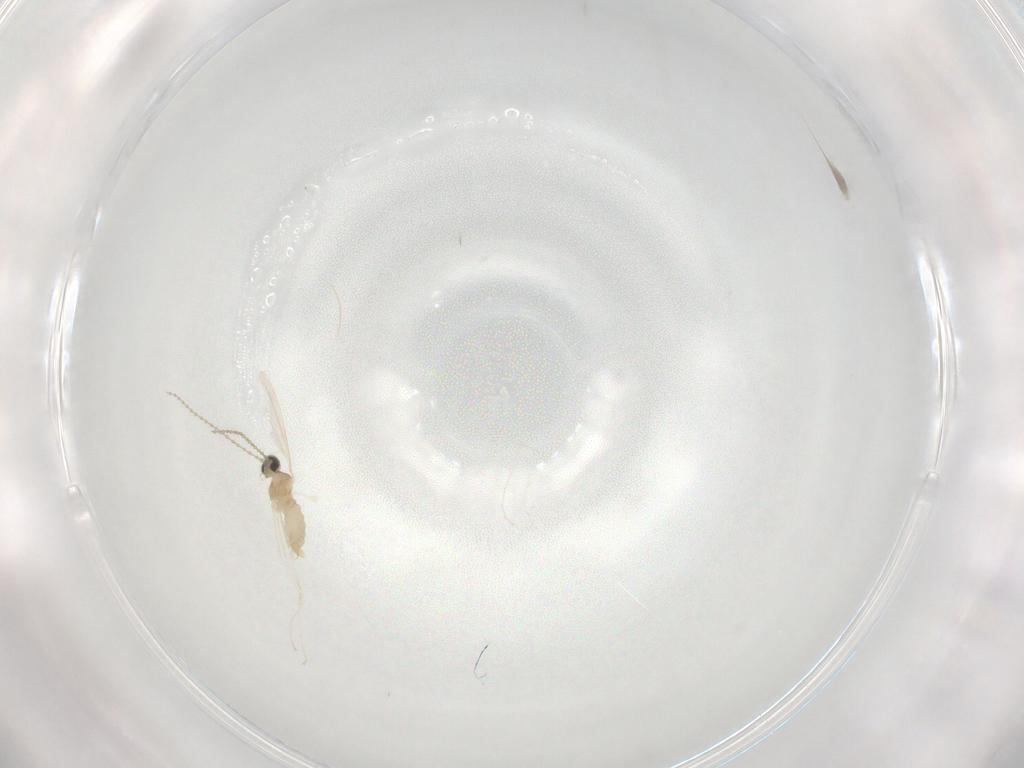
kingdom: Animalia
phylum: Arthropoda
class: Insecta
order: Diptera
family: Cecidomyiidae
